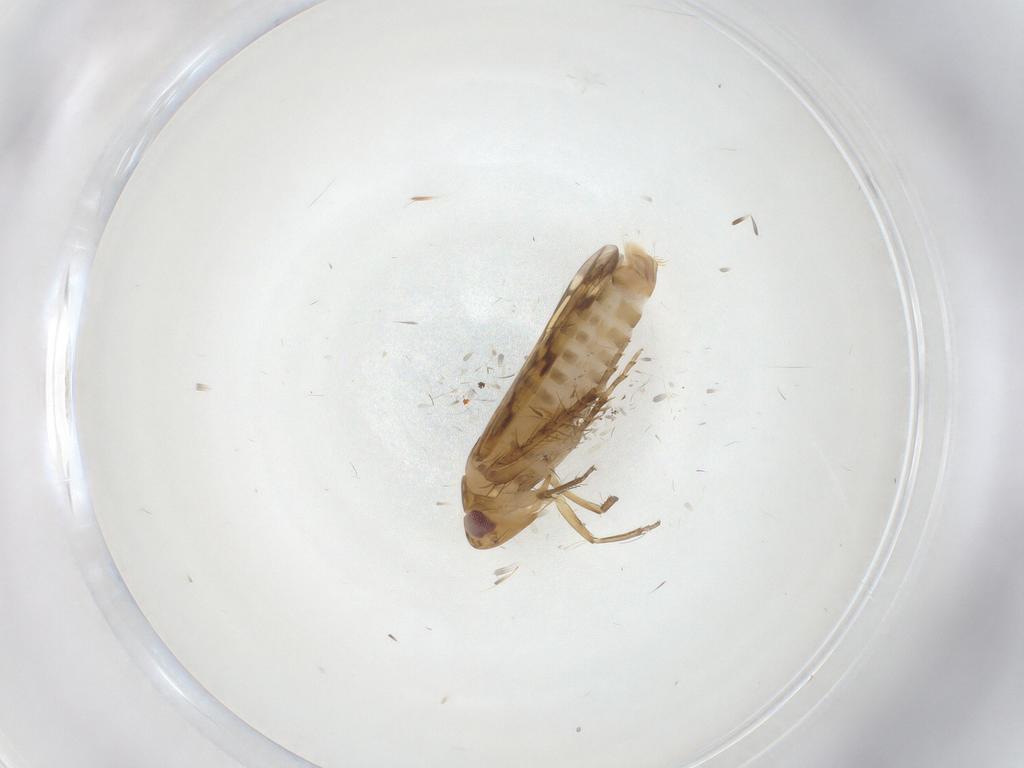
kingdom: Animalia
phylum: Arthropoda
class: Insecta
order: Hemiptera
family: Cicadellidae
